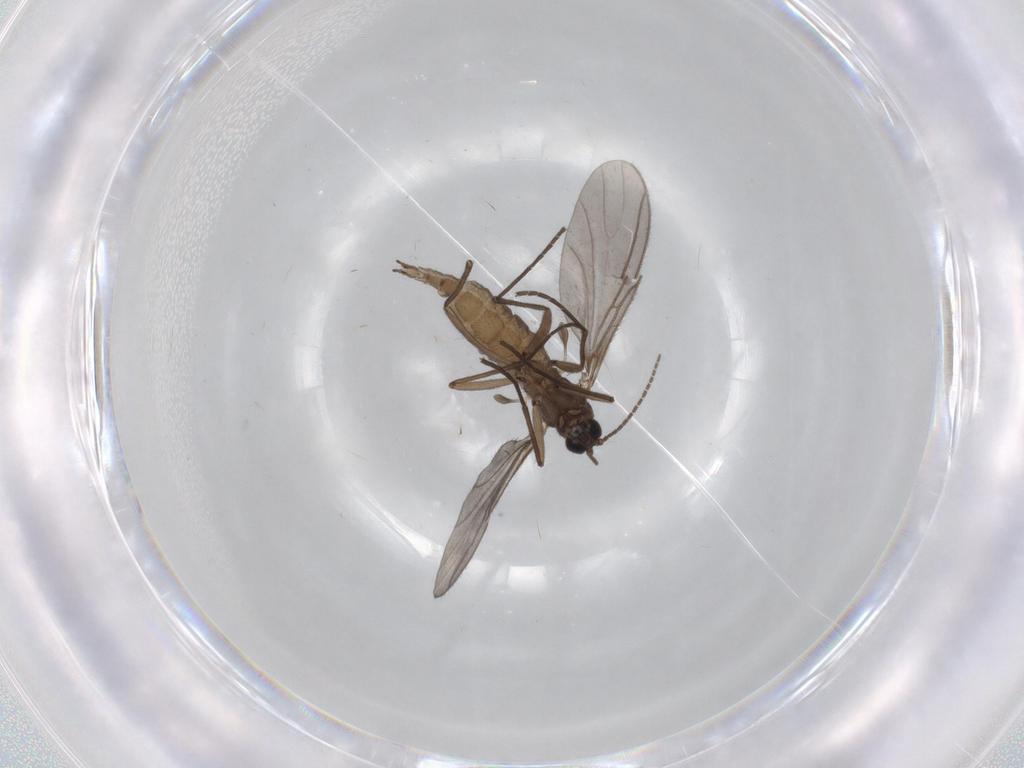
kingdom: Animalia
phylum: Arthropoda
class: Insecta
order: Diptera
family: Sciaridae
